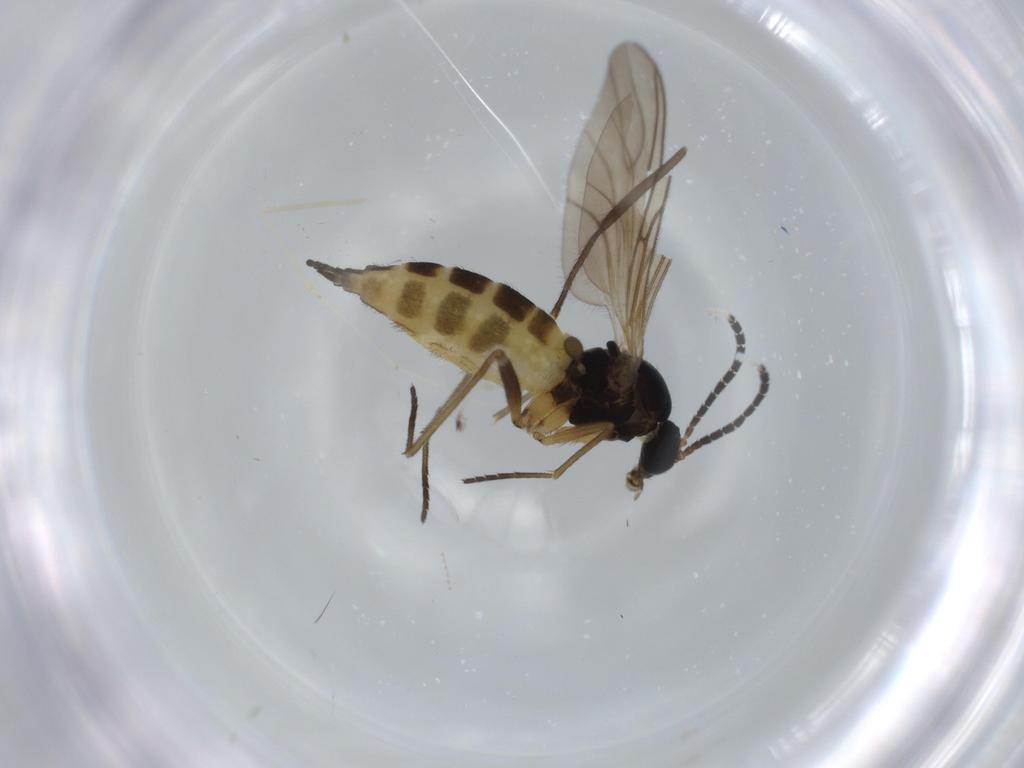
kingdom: Animalia
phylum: Arthropoda
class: Insecta
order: Diptera
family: Sciaridae
